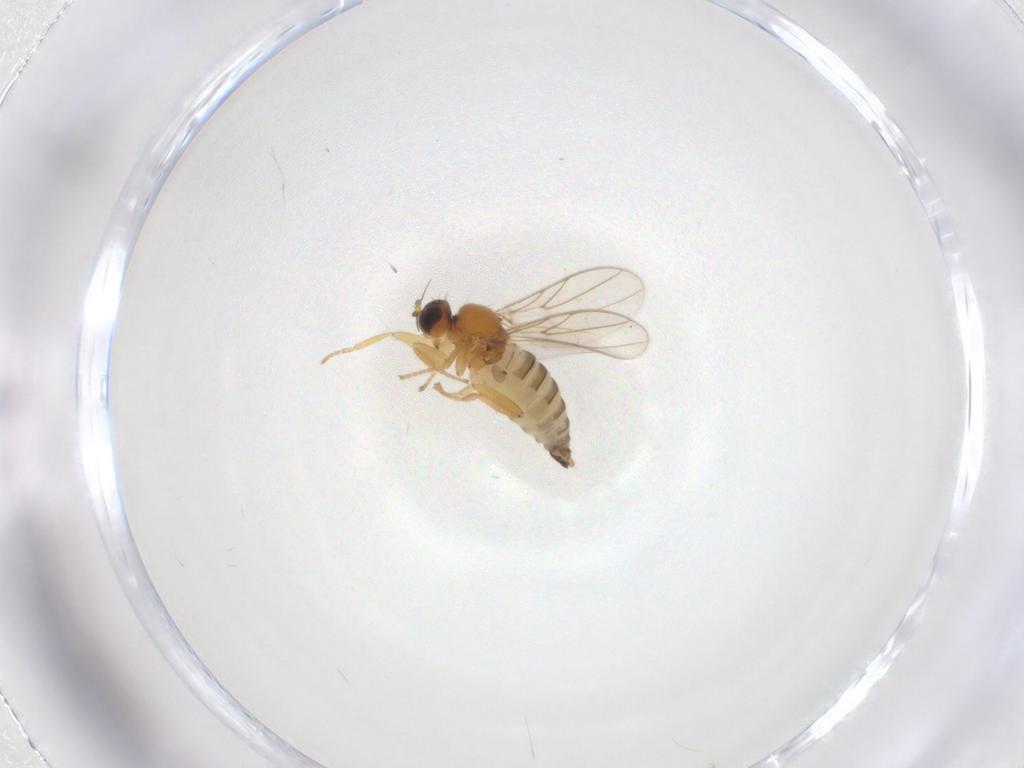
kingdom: Animalia
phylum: Arthropoda
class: Insecta
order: Diptera
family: Hybotidae
